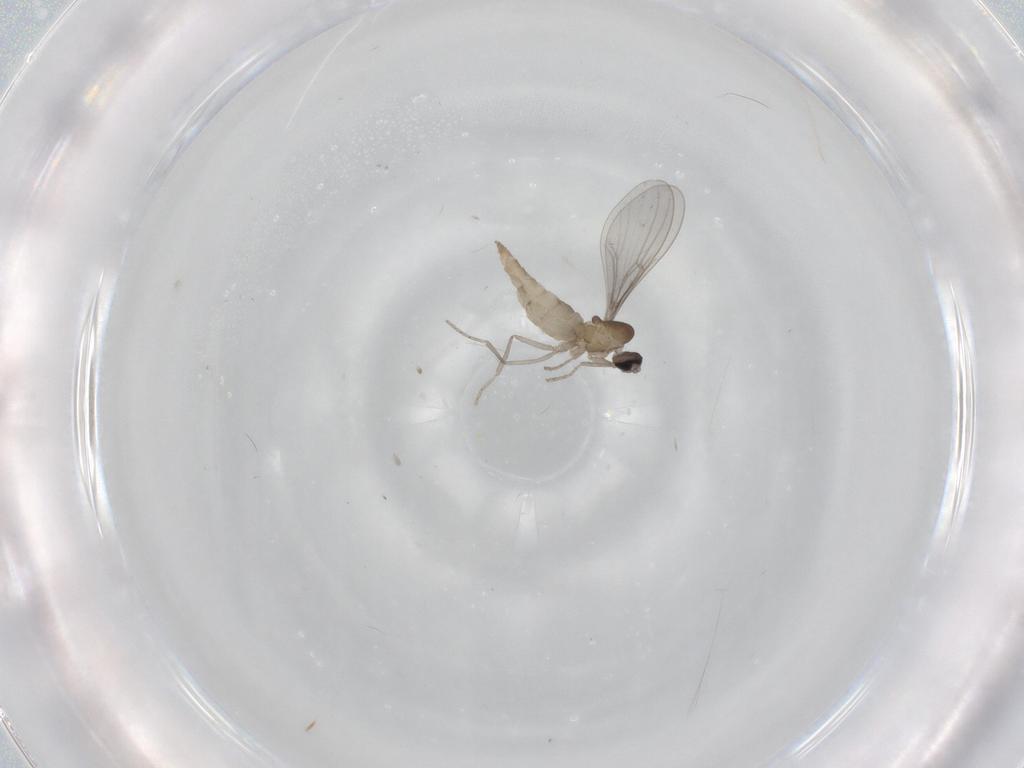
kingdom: Animalia
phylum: Arthropoda
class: Insecta
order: Diptera
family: Cecidomyiidae
